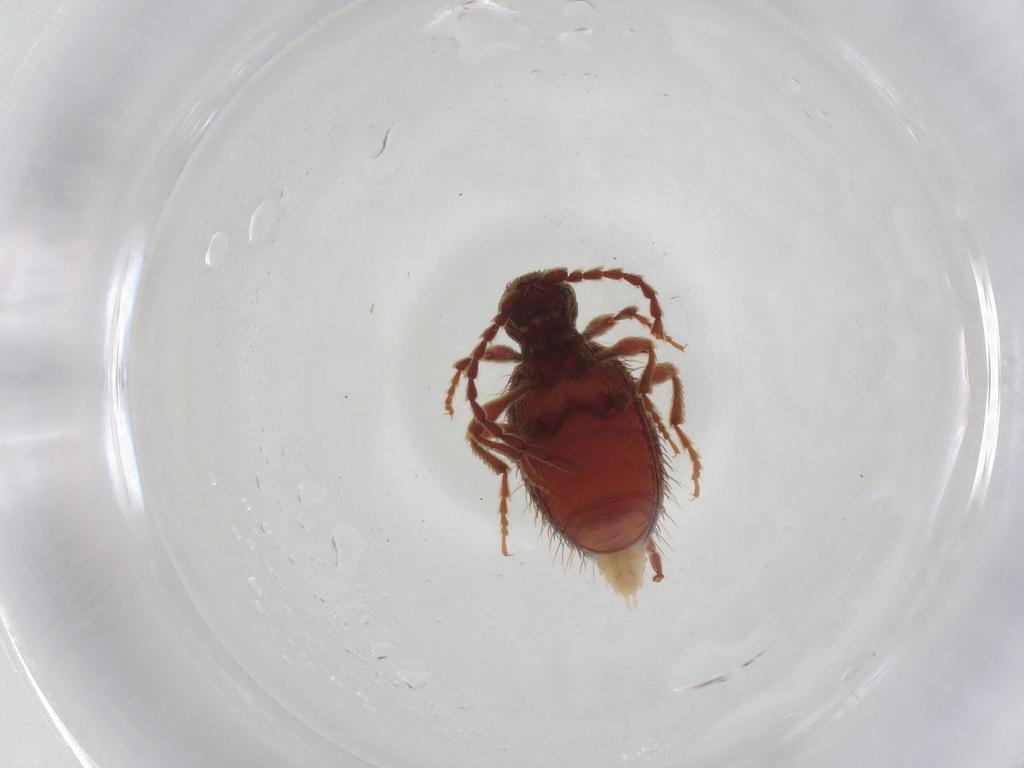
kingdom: Animalia
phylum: Arthropoda
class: Insecta
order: Coleoptera
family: Ptinidae
